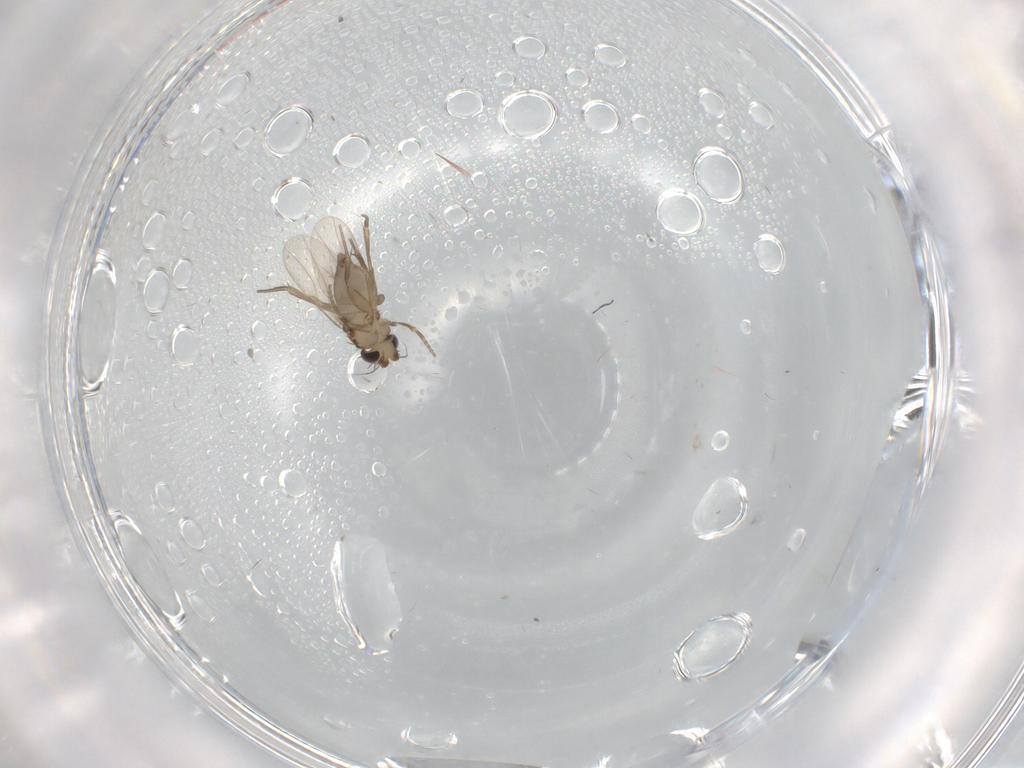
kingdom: Animalia
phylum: Arthropoda
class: Insecta
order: Diptera
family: Phoridae
